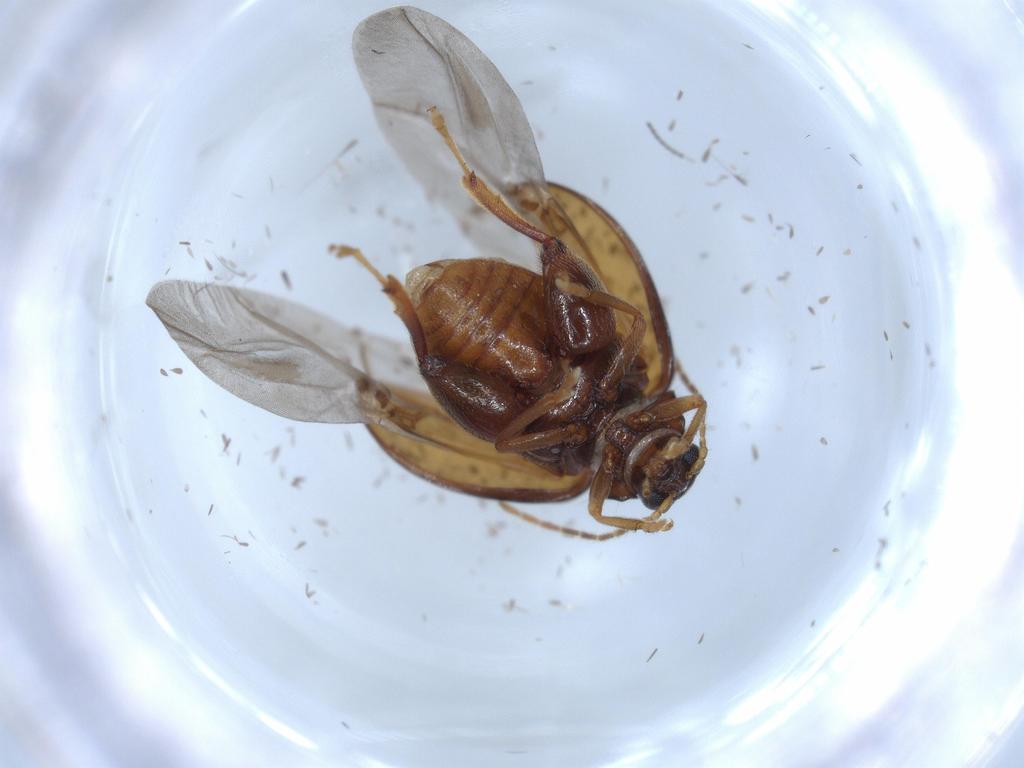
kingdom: Animalia
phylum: Arthropoda
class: Insecta
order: Coleoptera
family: Chrysomelidae
